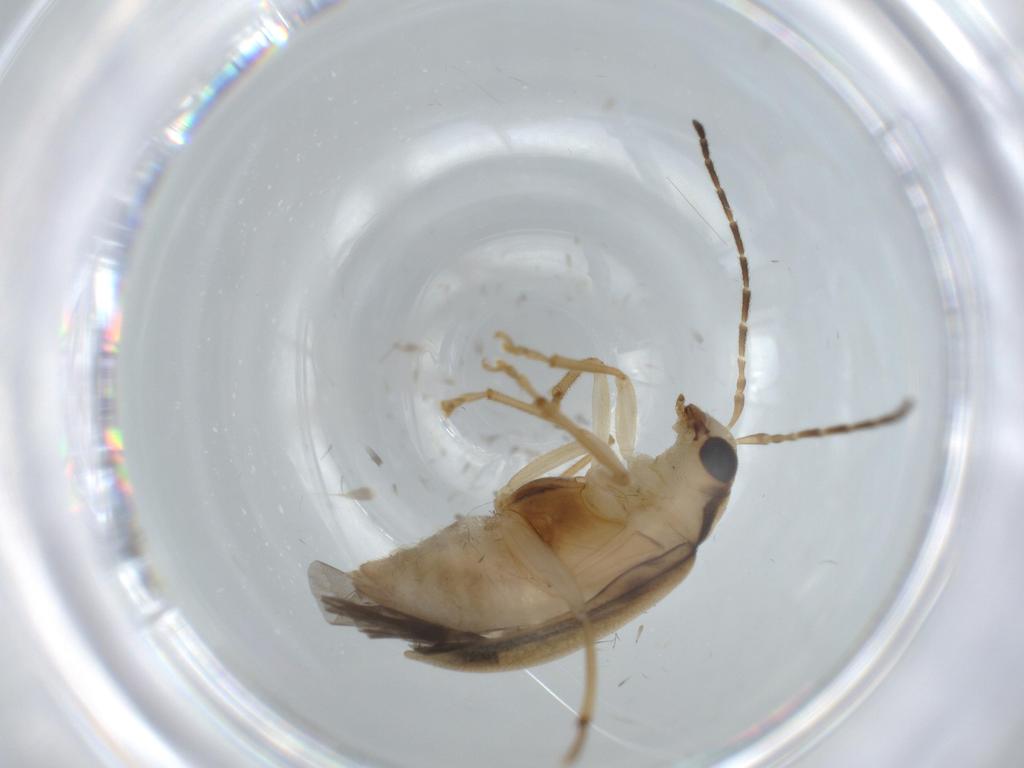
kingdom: Animalia
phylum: Arthropoda
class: Insecta
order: Coleoptera
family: Chrysomelidae
